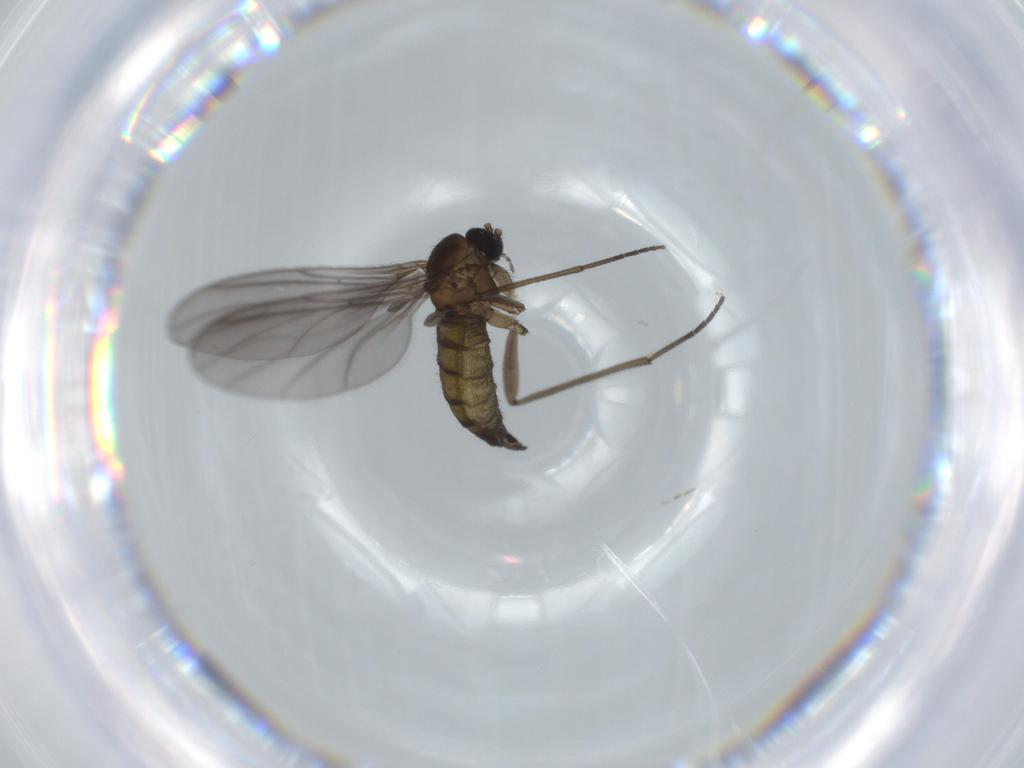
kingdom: Animalia
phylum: Arthropoda
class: Insecta
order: Diptera
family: Sciaridae
